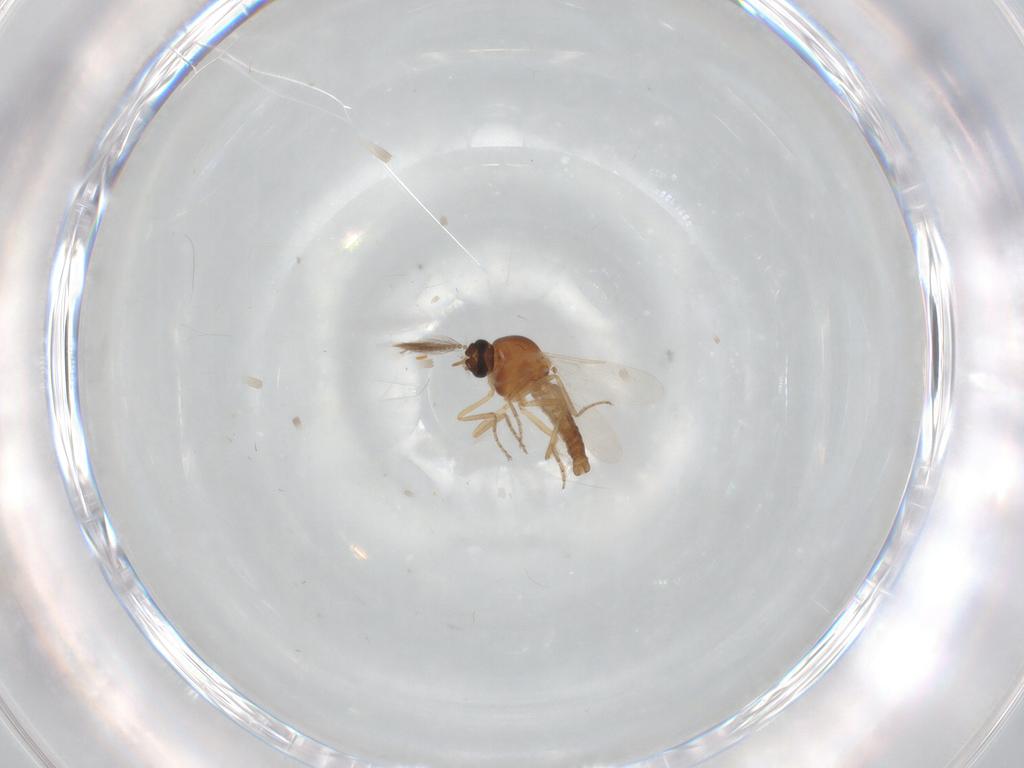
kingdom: Animalia
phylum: Arthropoda
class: Insecta
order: Diptera
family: Ceratopogonidae
